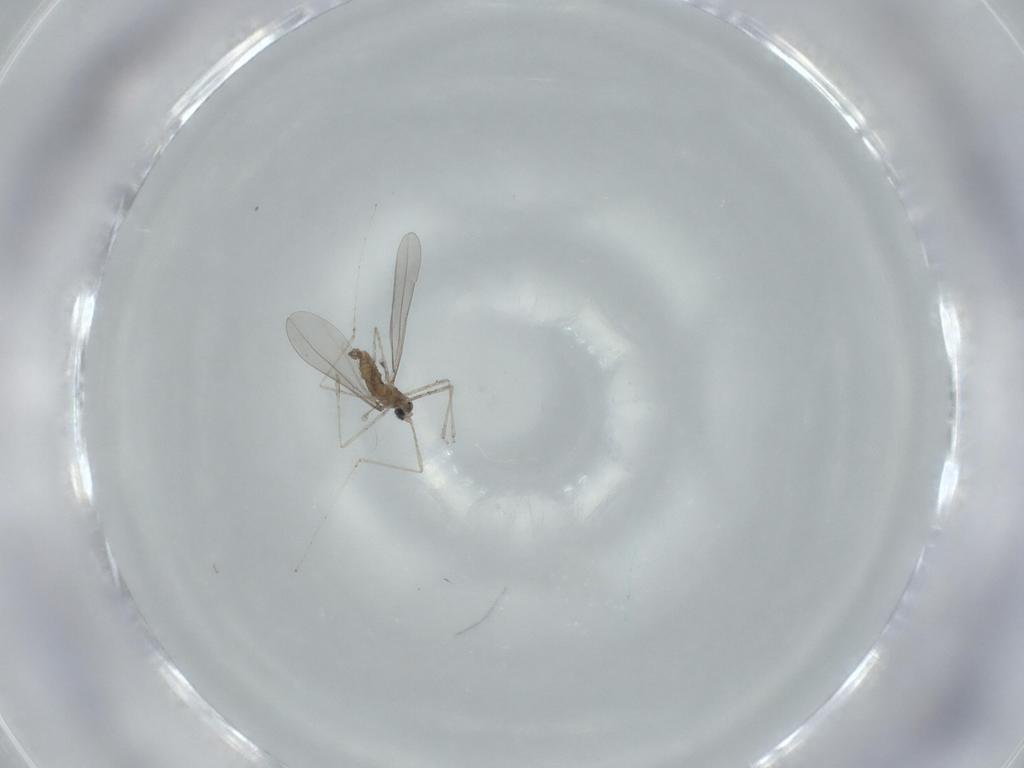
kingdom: Animalia
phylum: Arthropoda
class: Insecta
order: Diptera
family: Cecidomyiidae
